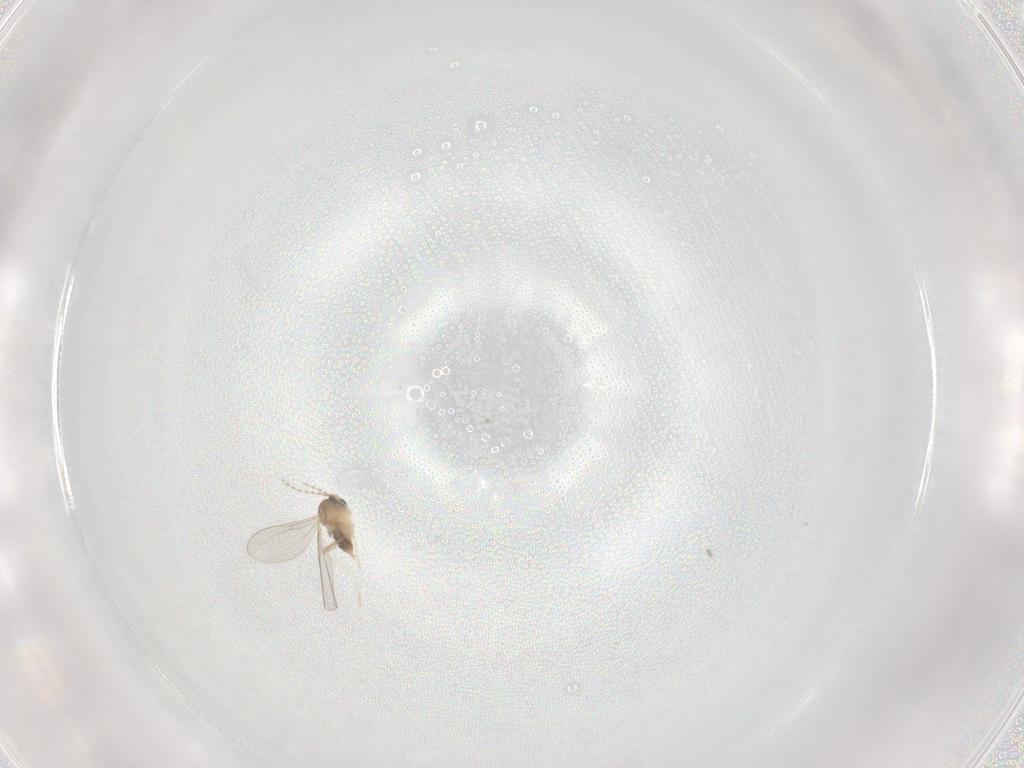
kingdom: Animalia
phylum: Arthropoda
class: Insecta
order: Diptera
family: Cecidomyiidae
